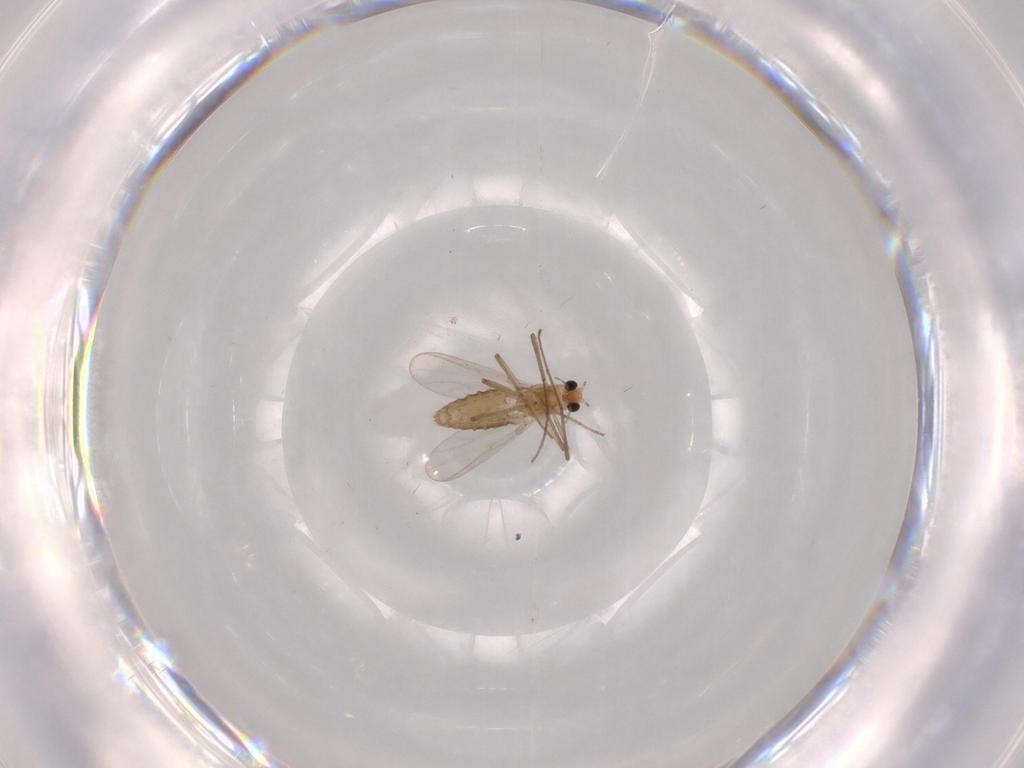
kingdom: Animalia
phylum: Arthropoda
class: Insecta
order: Diptera
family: Chironomidae
